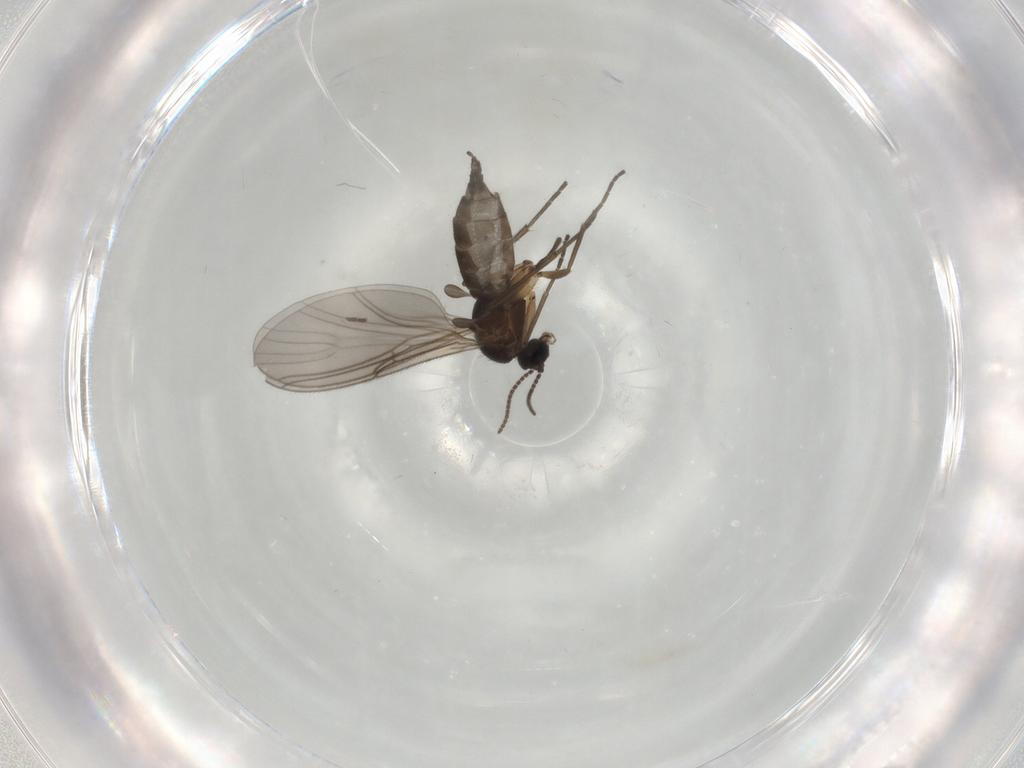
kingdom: Animalia
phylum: Arthropoda
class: Insecta
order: Diptera
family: Sciaridae
